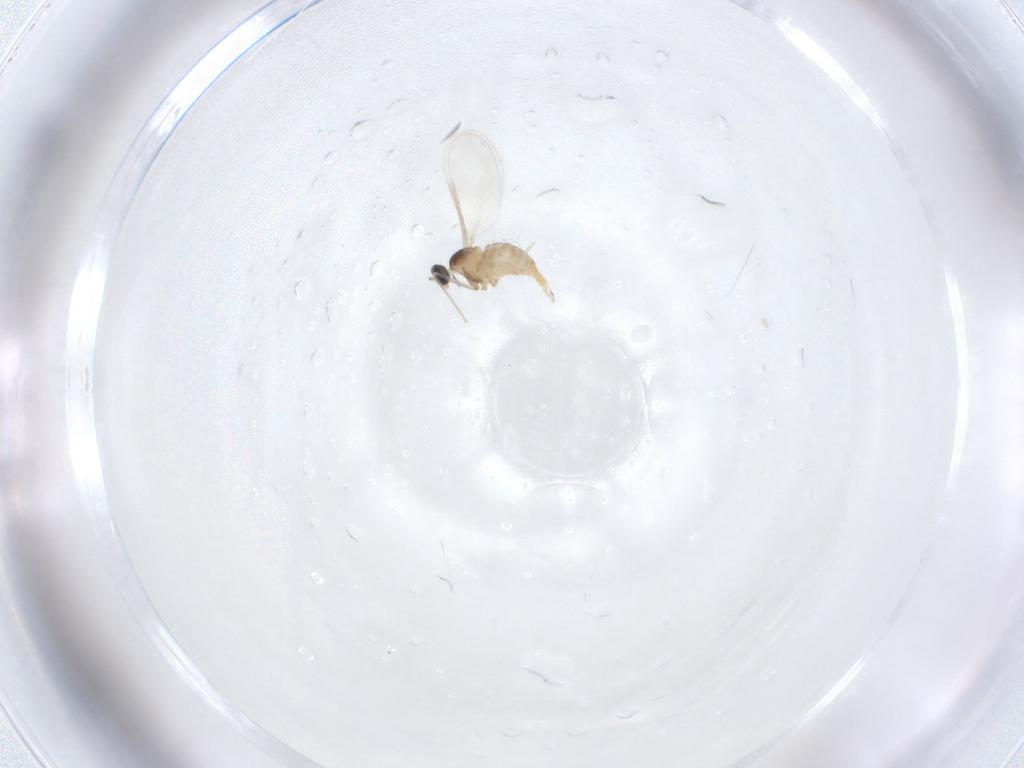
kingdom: Animalia
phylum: Arthropoda
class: Insecta
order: Diptera
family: Cecidomyiidae
